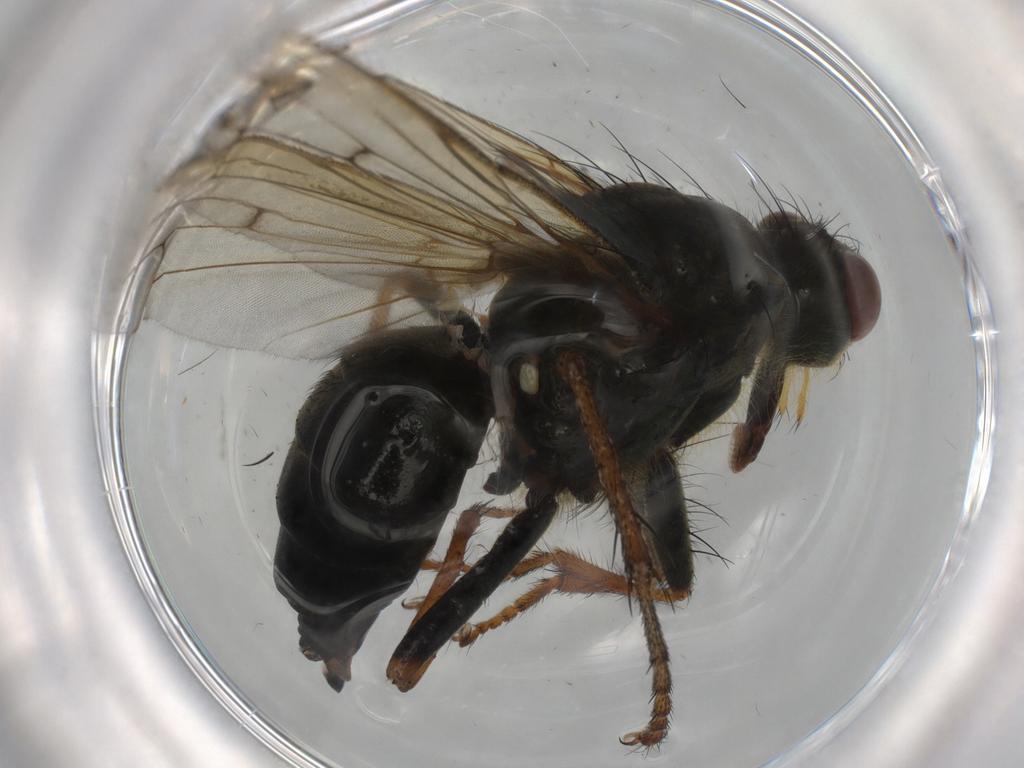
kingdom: Animalia
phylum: Arthropoda
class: Insecta
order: Diptera
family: Scathophagidae
